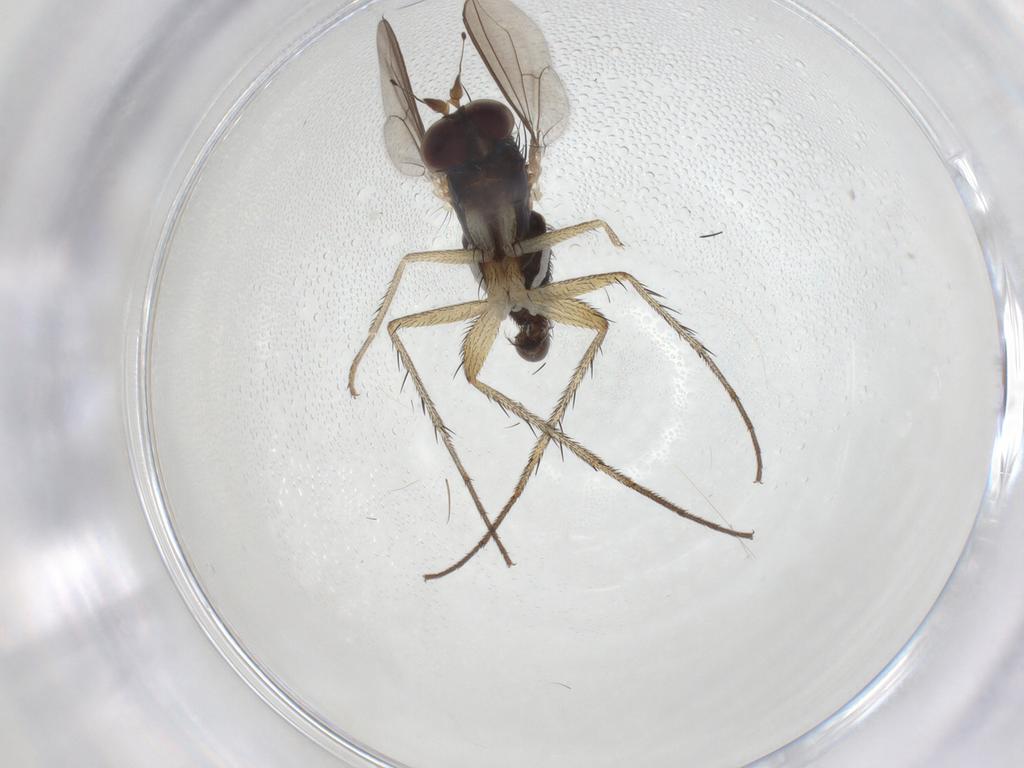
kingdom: Animalia
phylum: Arthropoda
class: Insecta
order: Diptera
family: Dolichopodidae
